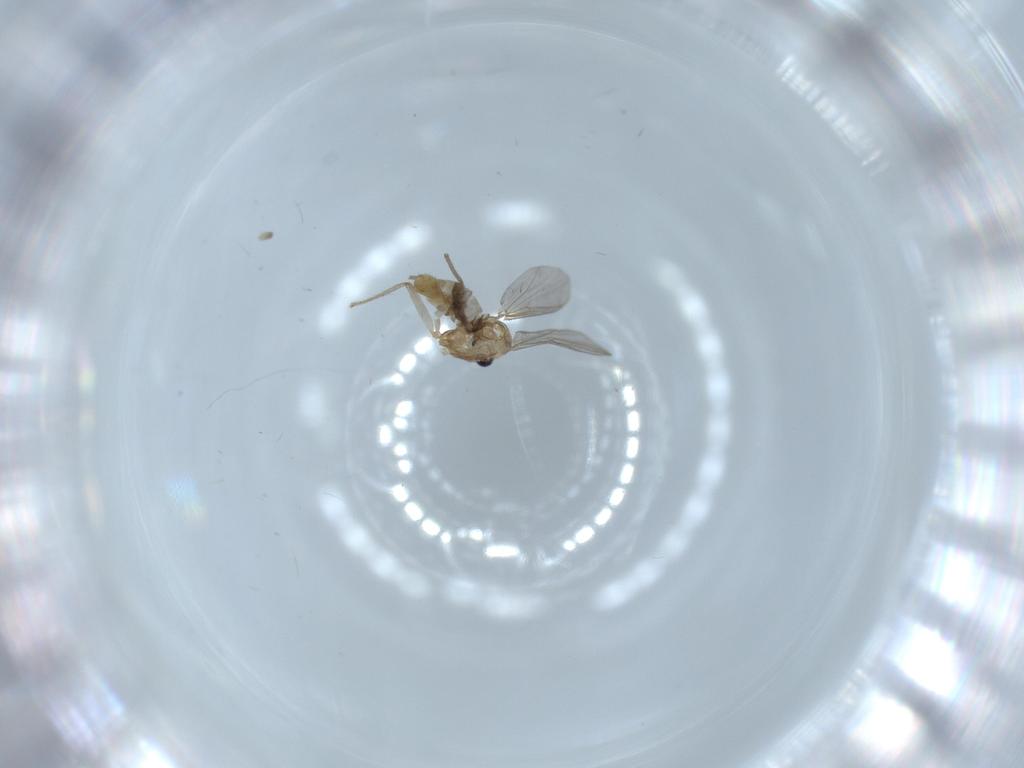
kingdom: Animalia
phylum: Arthropoda
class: Insecta
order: Diptera
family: Chironomidae
